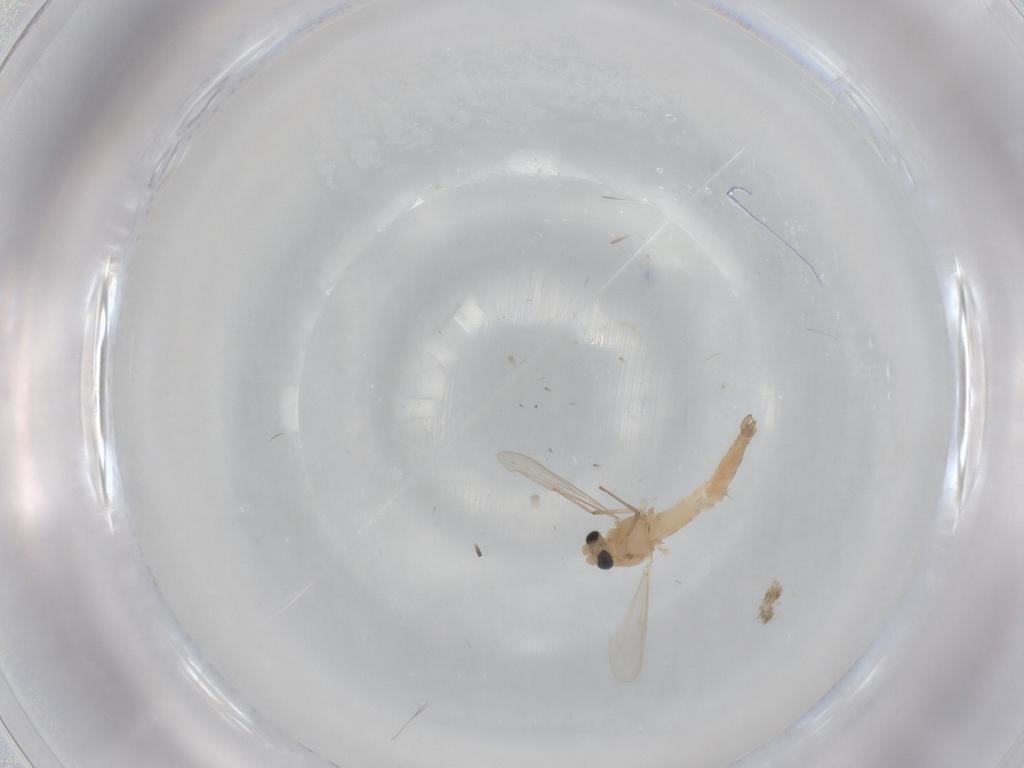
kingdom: Animalia
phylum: Arthropoda
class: Insecta
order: Diptera
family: Chironomidae
